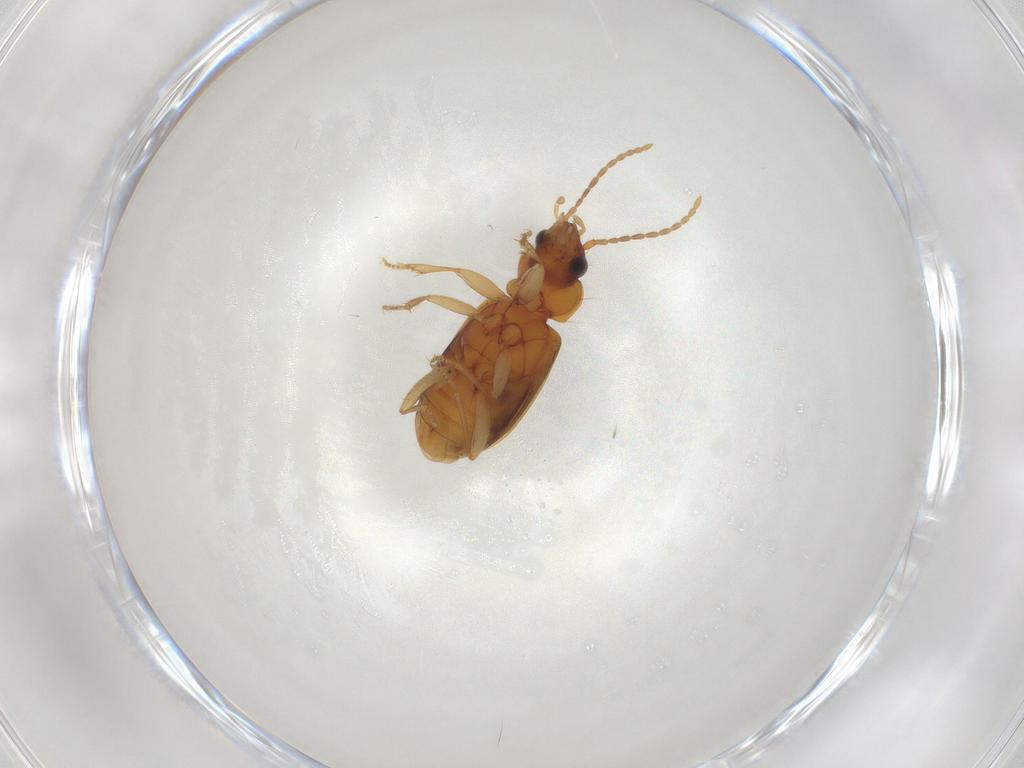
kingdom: Animalia
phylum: Arthropoda
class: Insecta
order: Coleoptera
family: Carabidae
